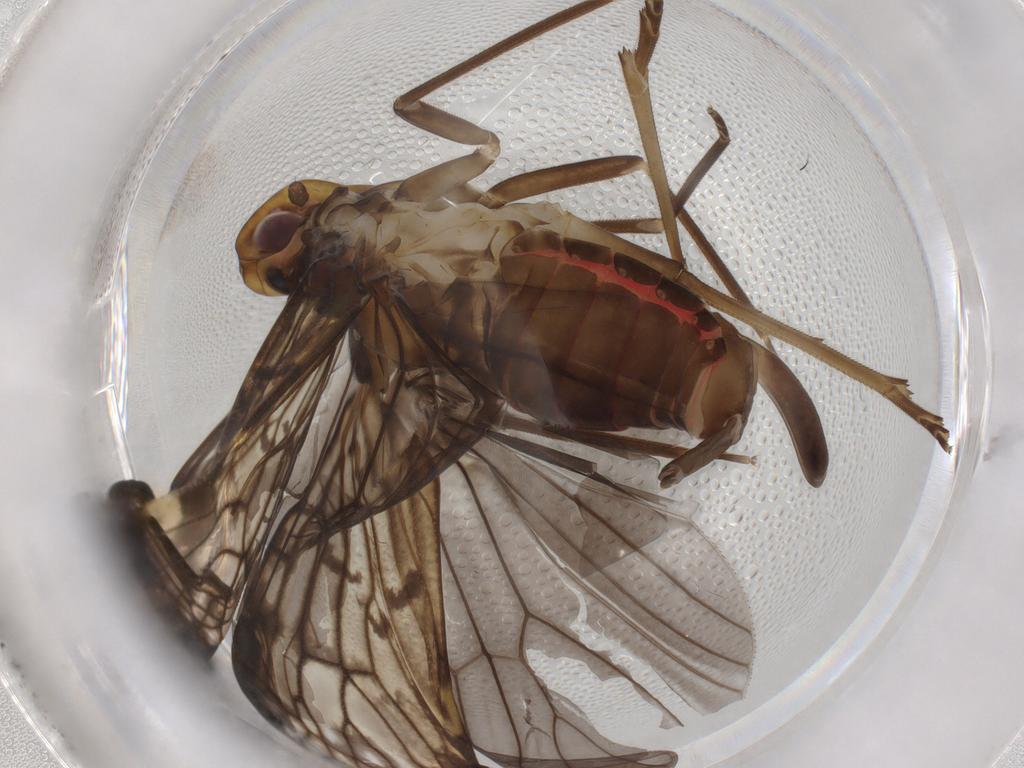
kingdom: Animalia
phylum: Arthropoda
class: Insecta
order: Hemiptera
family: Cixiidae
